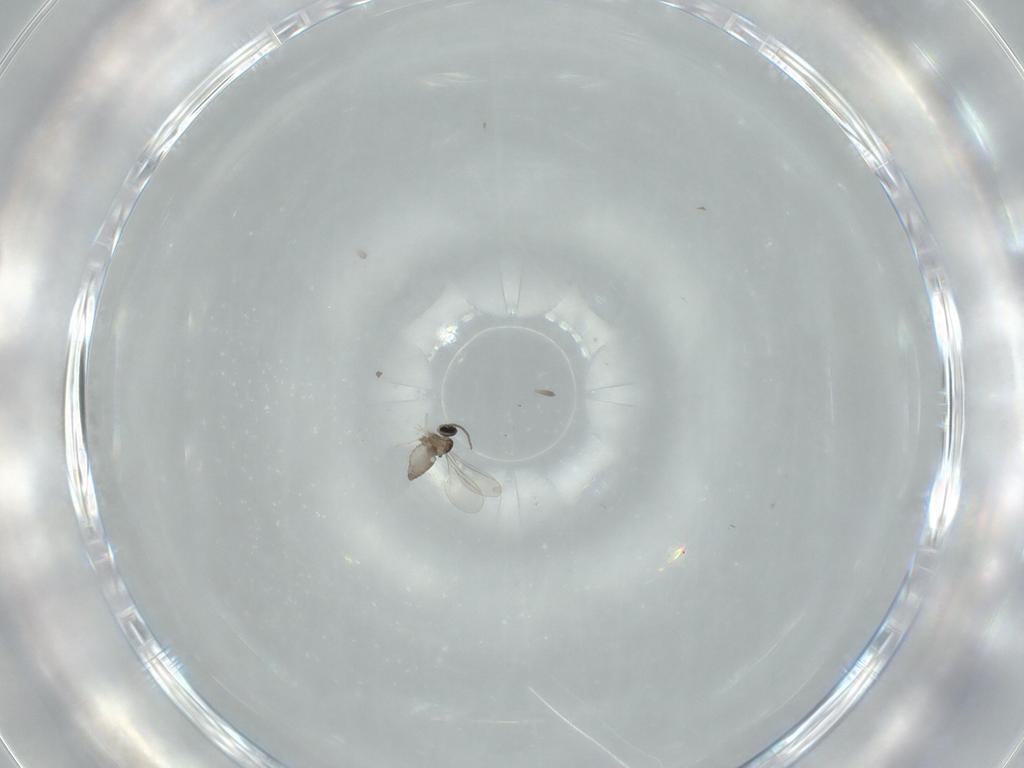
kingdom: Animalia
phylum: Arthropoda
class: Insecta
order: Diptera
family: Cecidomyiidae
